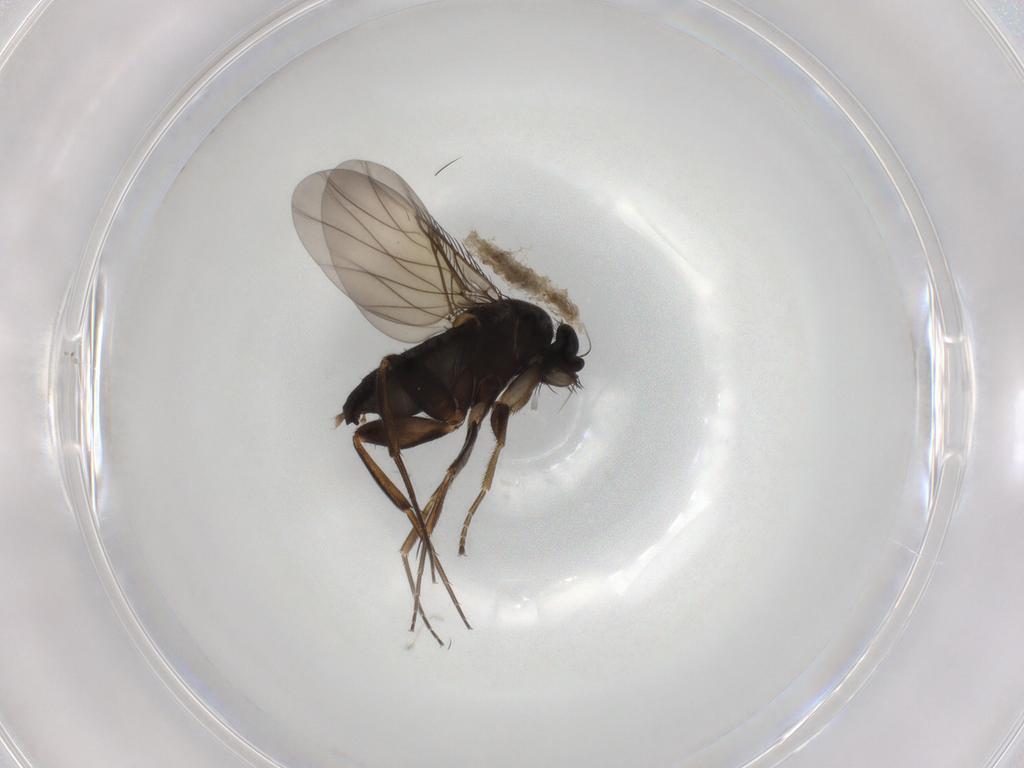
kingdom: Animalia
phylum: Arthropoda
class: Insecta
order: Diptera
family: Phoridae
